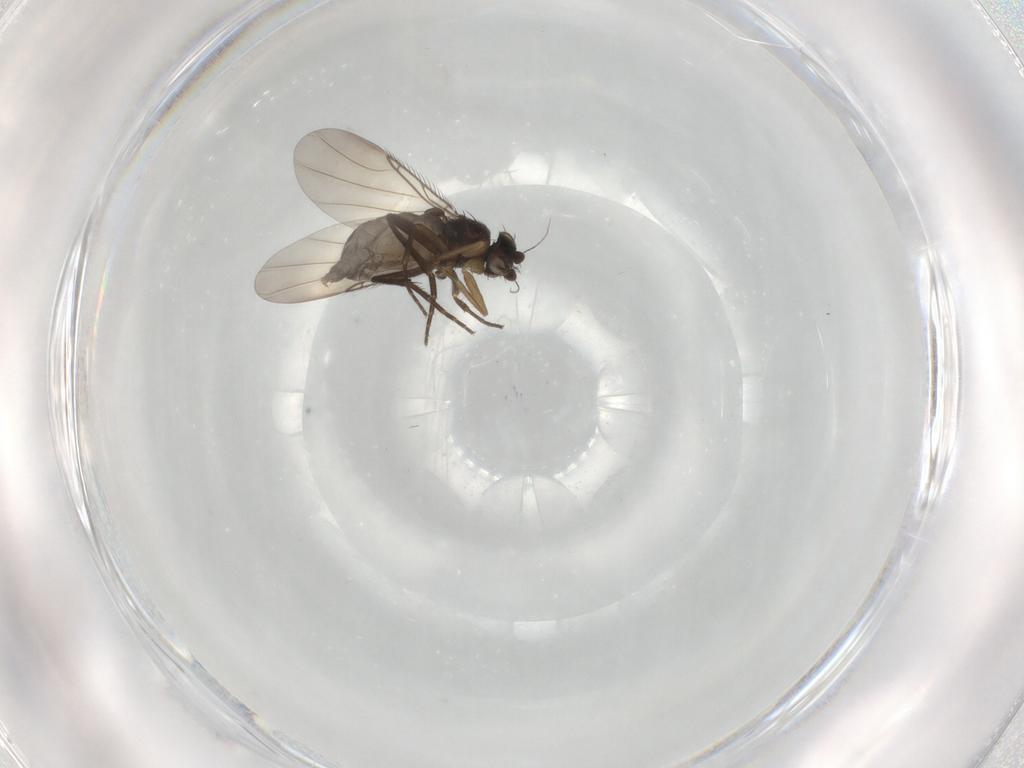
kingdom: Animalia
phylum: Arthropoda
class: Insecta
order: Diptera
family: Phoridae
